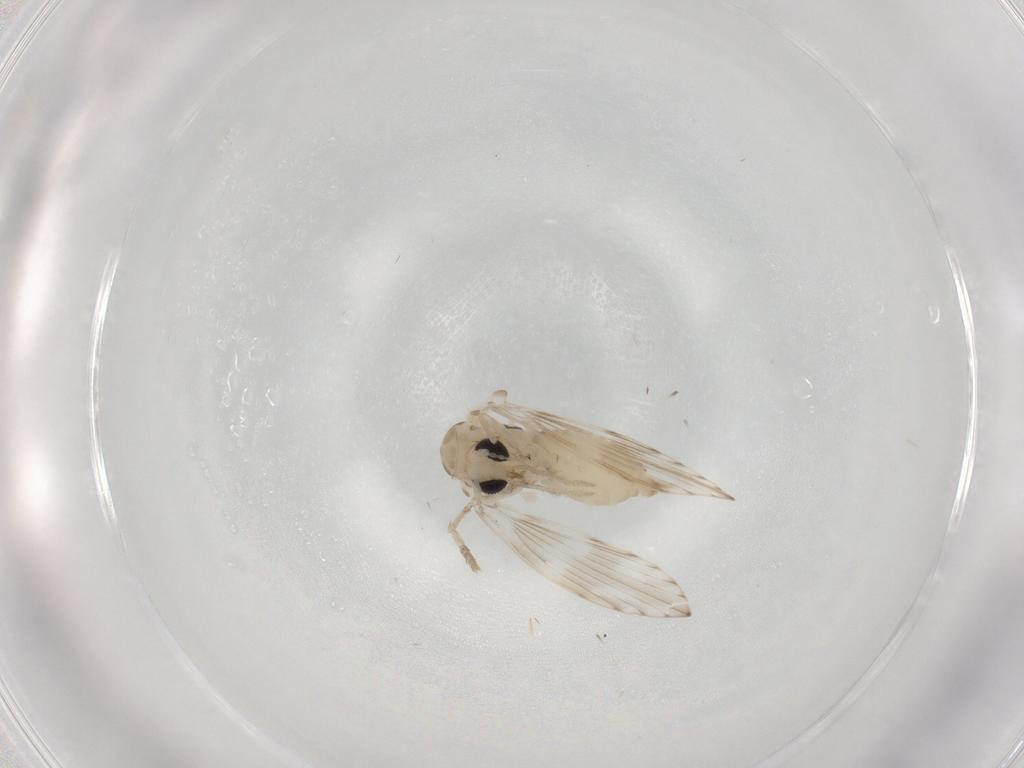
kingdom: Animalia
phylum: Arthropoda
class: Insecta
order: Diptera
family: Psychodidae
